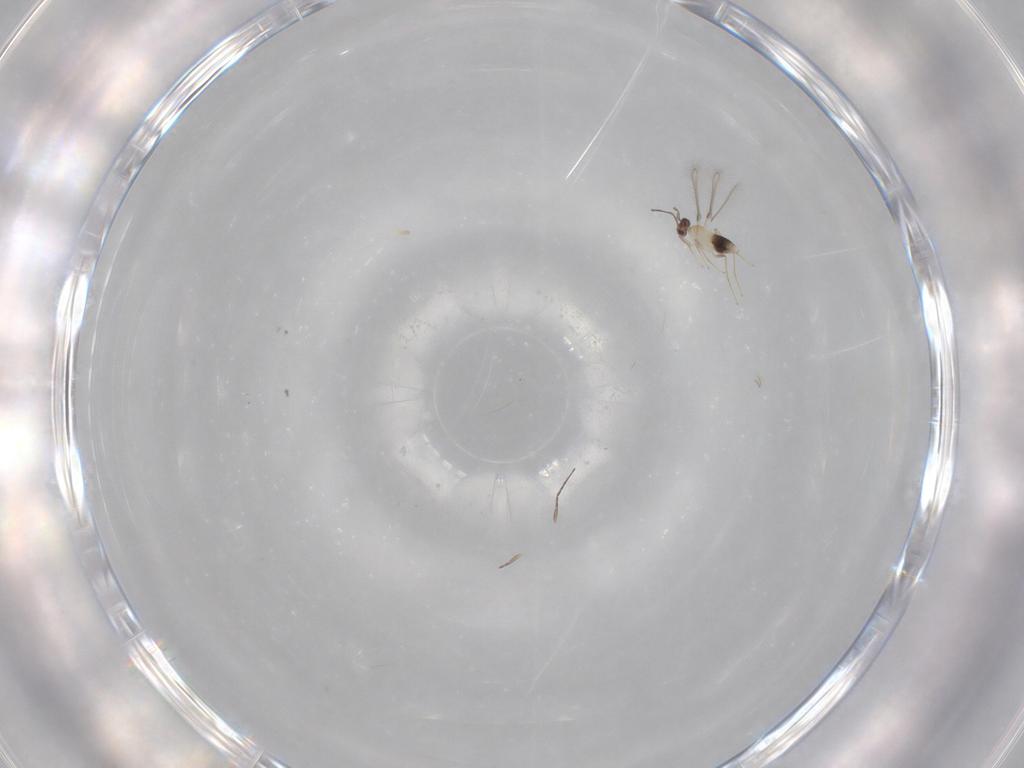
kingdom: Animalia
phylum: Arthropoda
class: Insecta
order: Hymenoptera
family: Mymaridae
